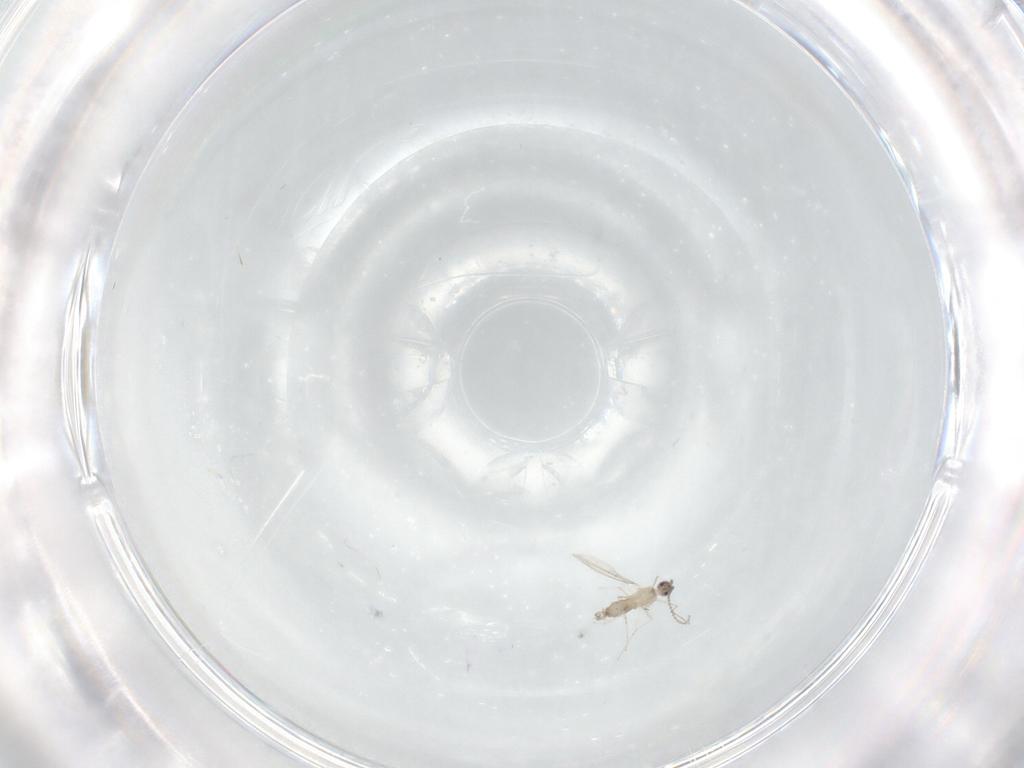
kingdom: Animalia
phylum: Arthropoda
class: Insecta
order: Diptera
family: Cecidomyiidae
